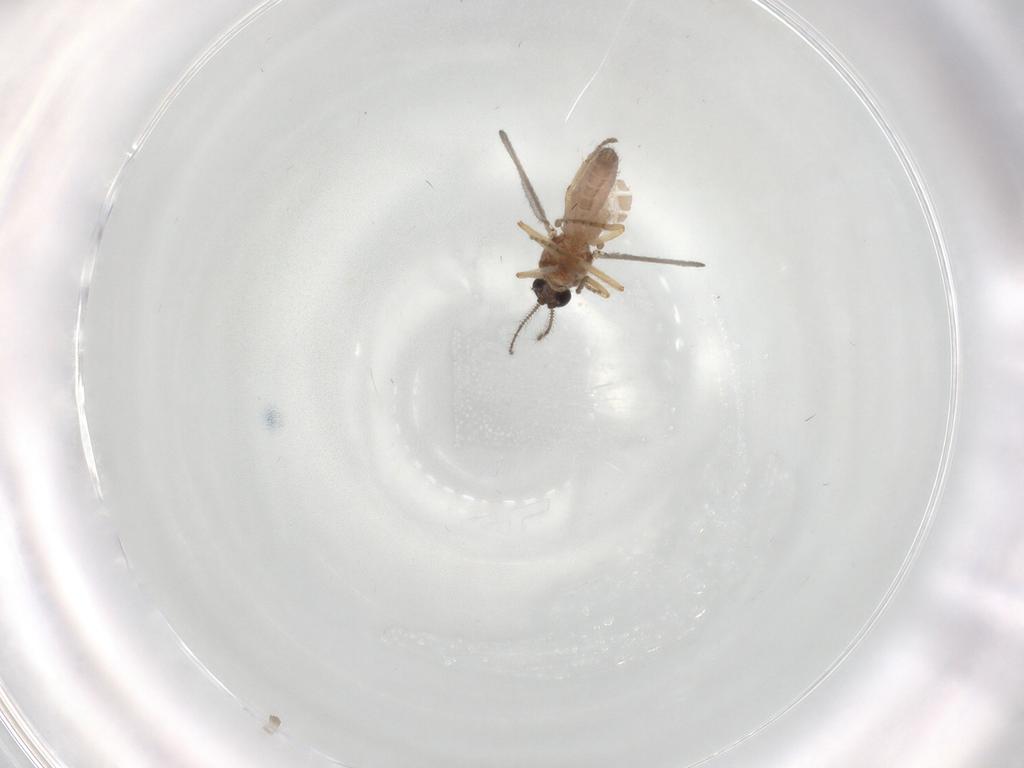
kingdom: Animalia
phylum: Arthropoda
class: Insecta
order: Diptera
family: Ceratopogonidae
